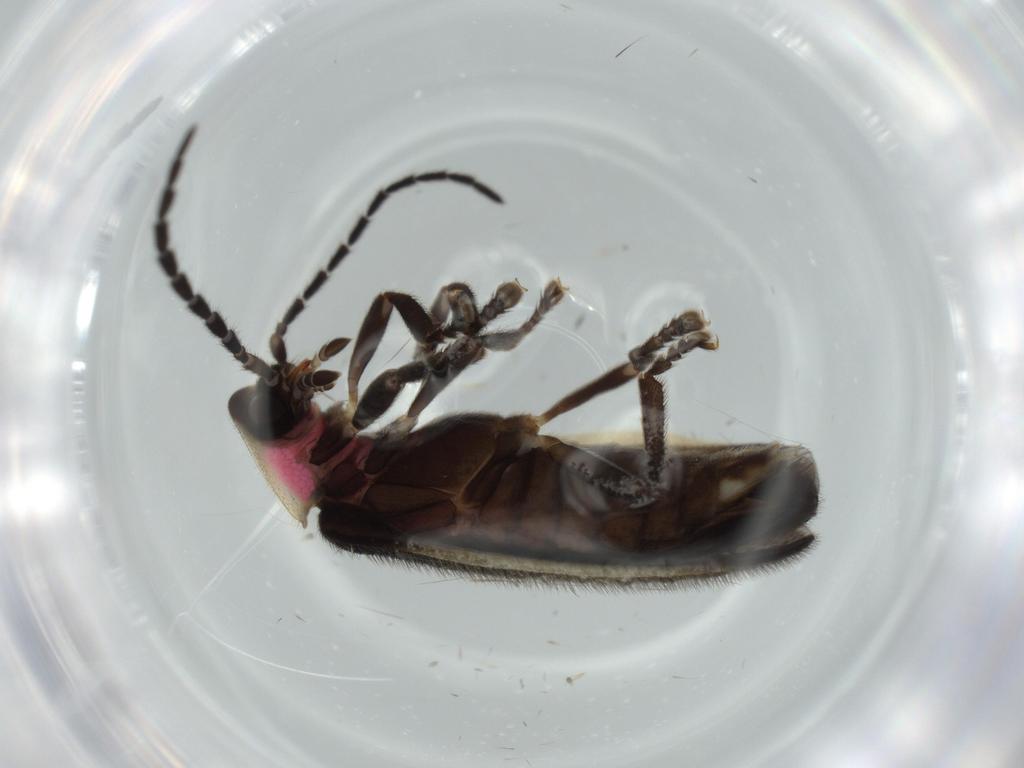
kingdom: Animalia
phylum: Arthropoda
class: Insecta
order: Coleoptera
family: Lampyridae
